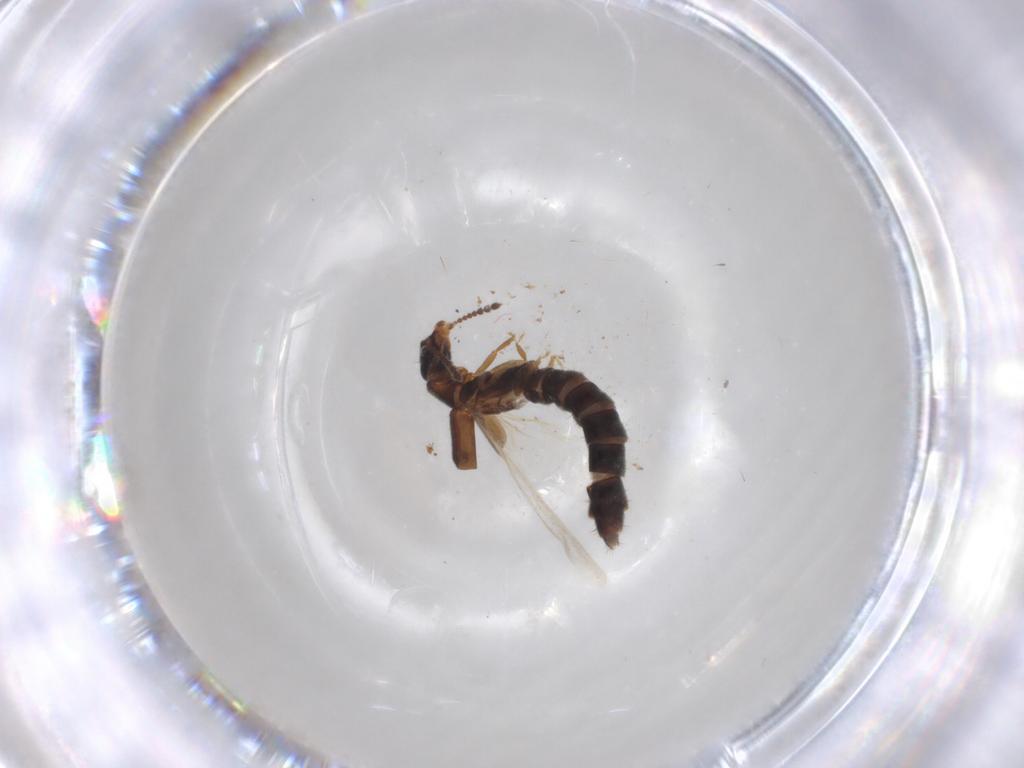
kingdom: Animalia
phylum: Arthropoda
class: Insecta
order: Coleoptera
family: Staphylinidae
